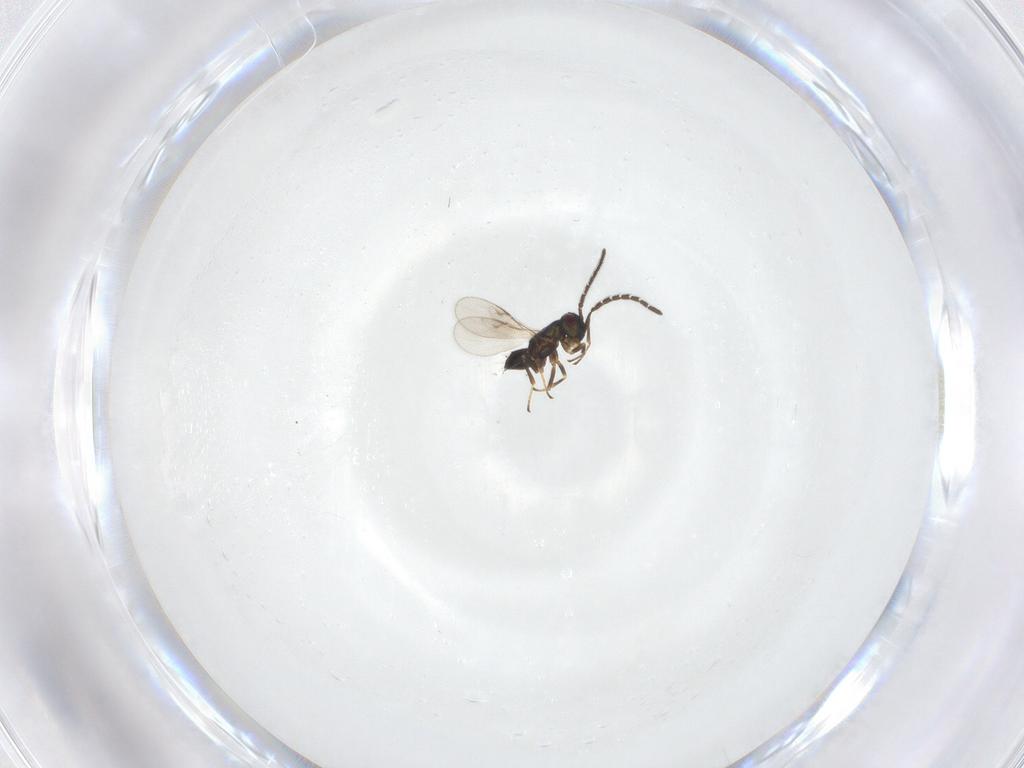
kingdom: Animalia
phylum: Arthropoda
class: Insecta
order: Hymenoptera
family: Encyrtidae
